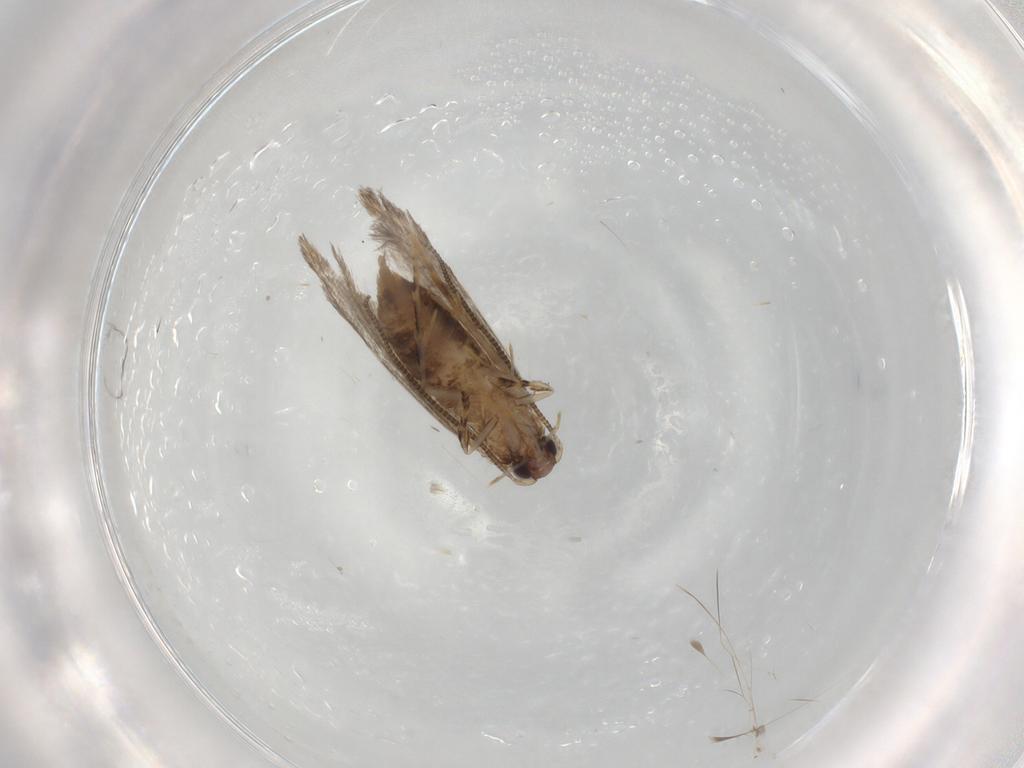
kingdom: Animalia
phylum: Arthropoda
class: Insecta
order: Lepidoptera
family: Tineidae
